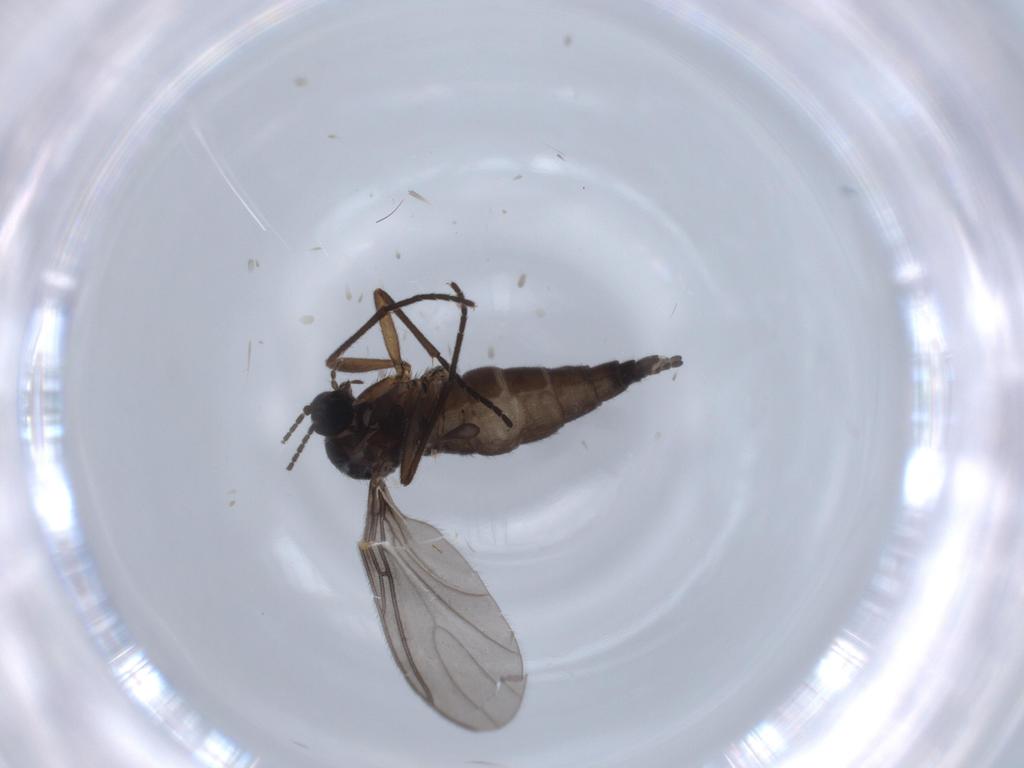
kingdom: Animalia
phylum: Arthropoda
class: Insecta
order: Diptera
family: Sciaridae
